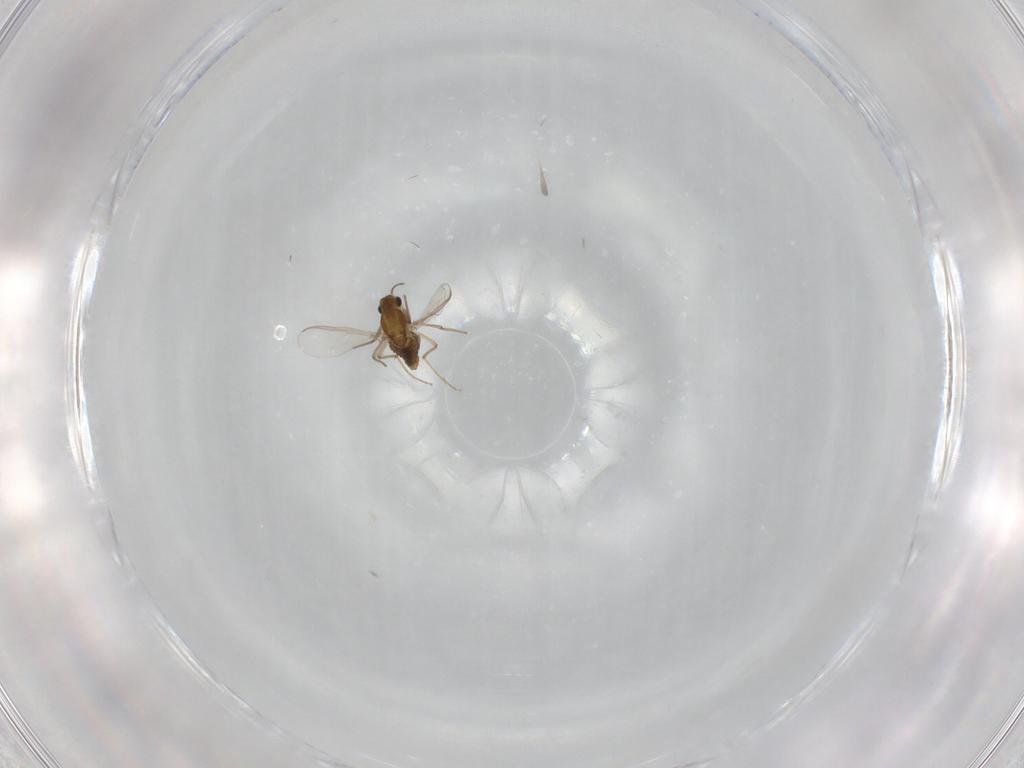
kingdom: Animalia
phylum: Arthropoda
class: Insecta
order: Diptera
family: Chironomidae
